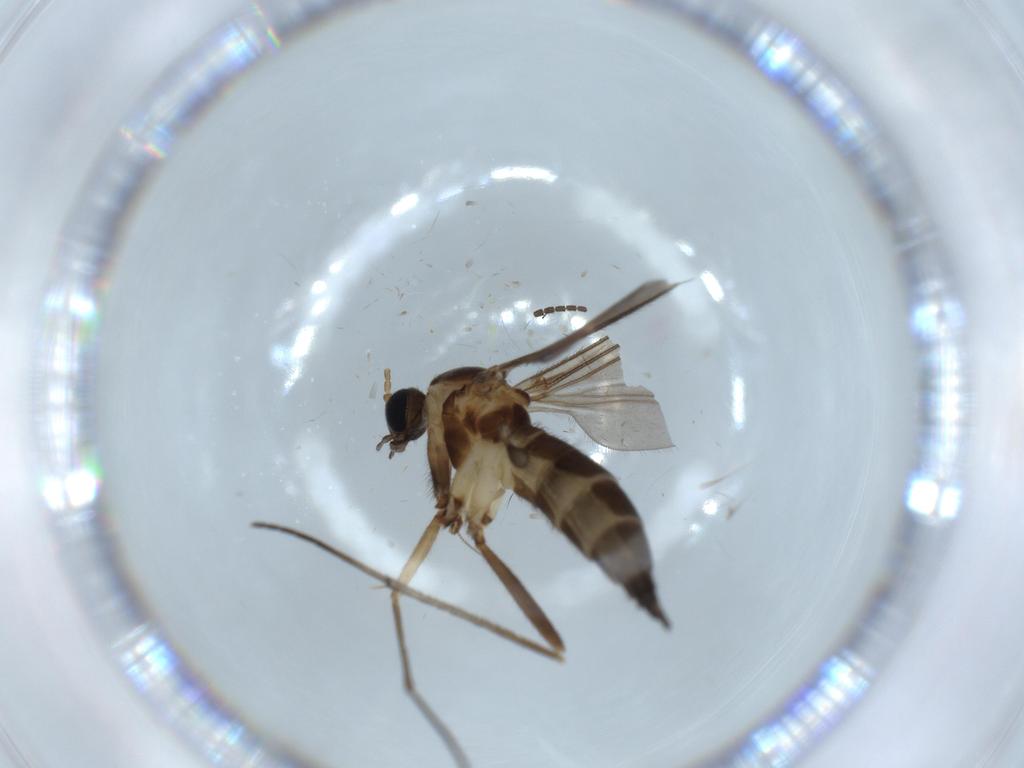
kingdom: Animalia
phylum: Arthropoda
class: Insecta
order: Diptera
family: Sciaridae
